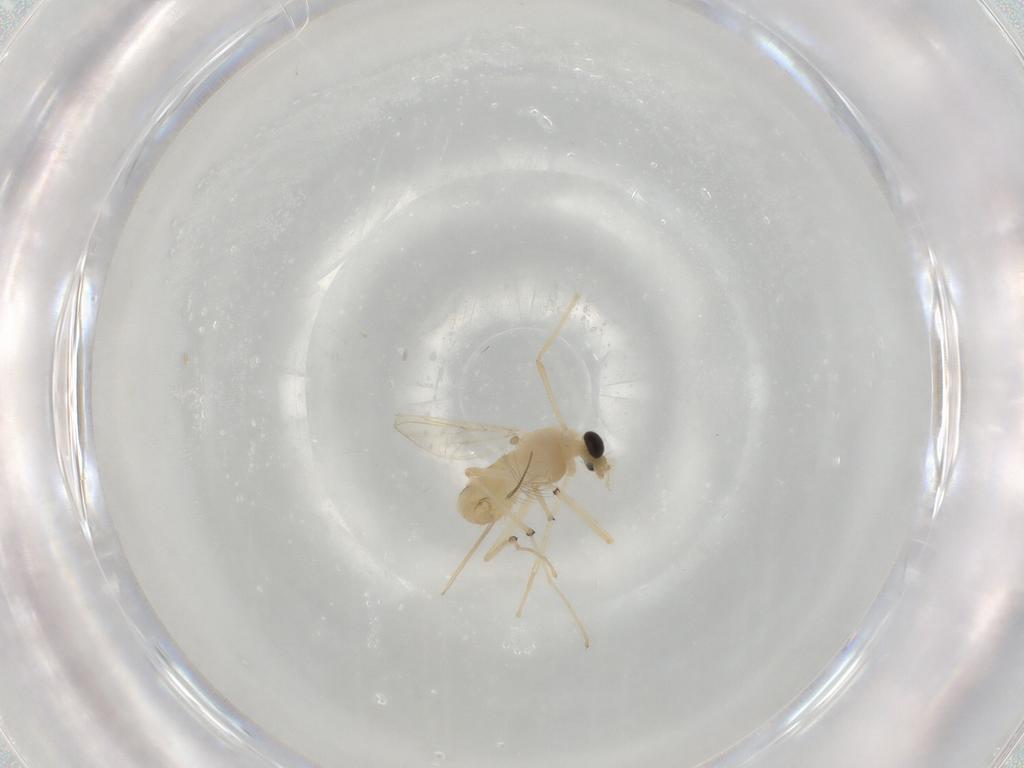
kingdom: Animalia
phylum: Arthropoda
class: Insecta
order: Diptera
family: Chironomidae
